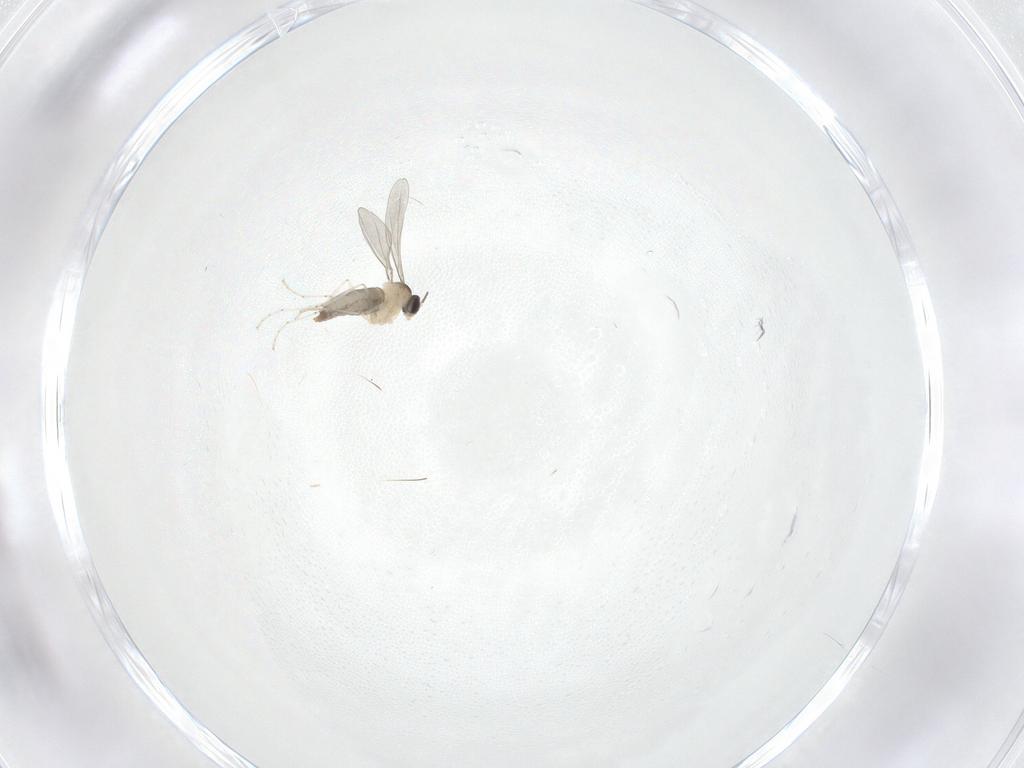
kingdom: Animalia
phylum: Arthropoda
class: Insecta
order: Diptera
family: Cecidomyiidae
